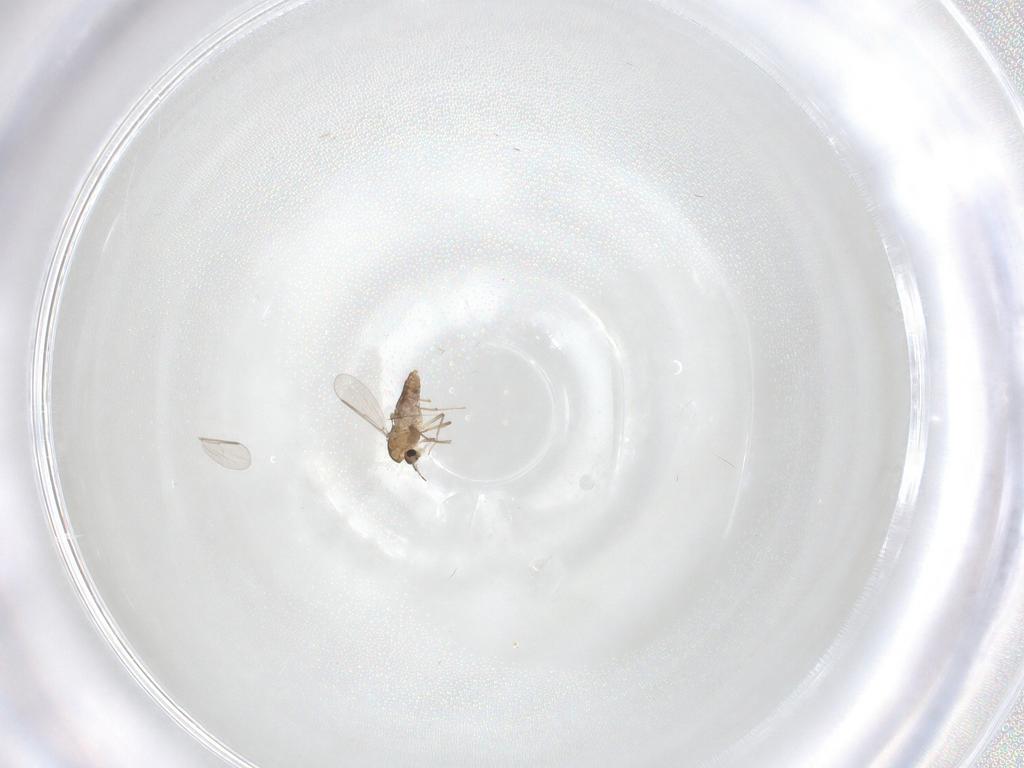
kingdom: Animalia
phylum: Arthropoda
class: Insecta
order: Diptera
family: Chironomidae
